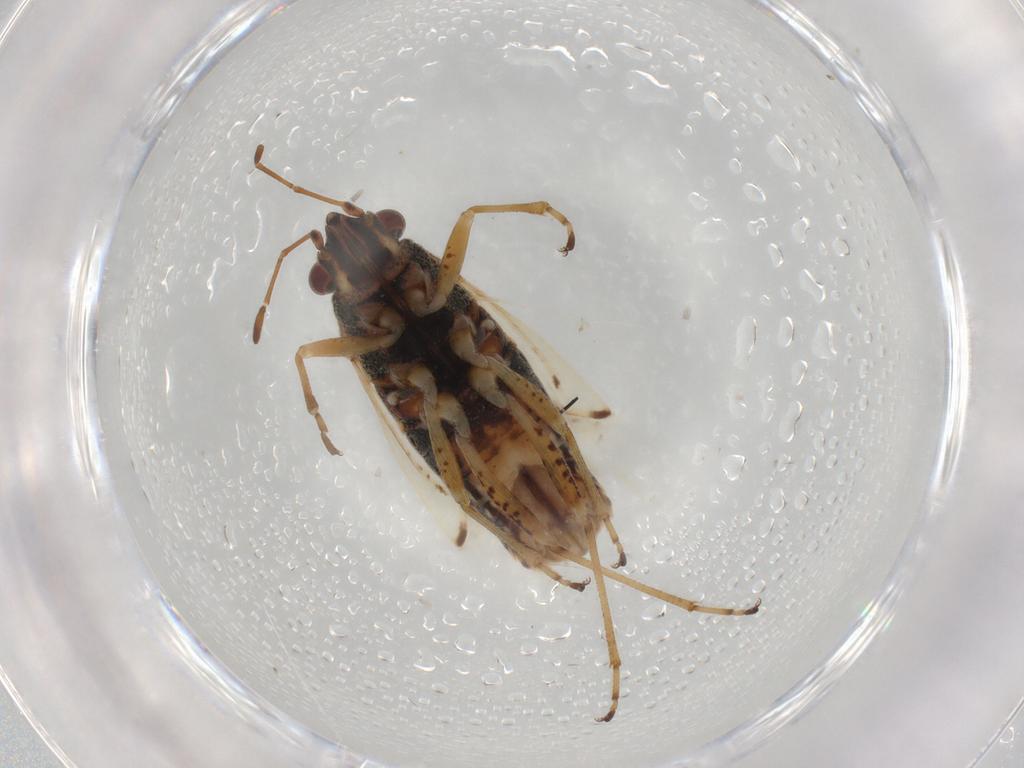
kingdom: Animalia
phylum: Arthropoda
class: Insecta
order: Hemiptera
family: Lygaeidae
